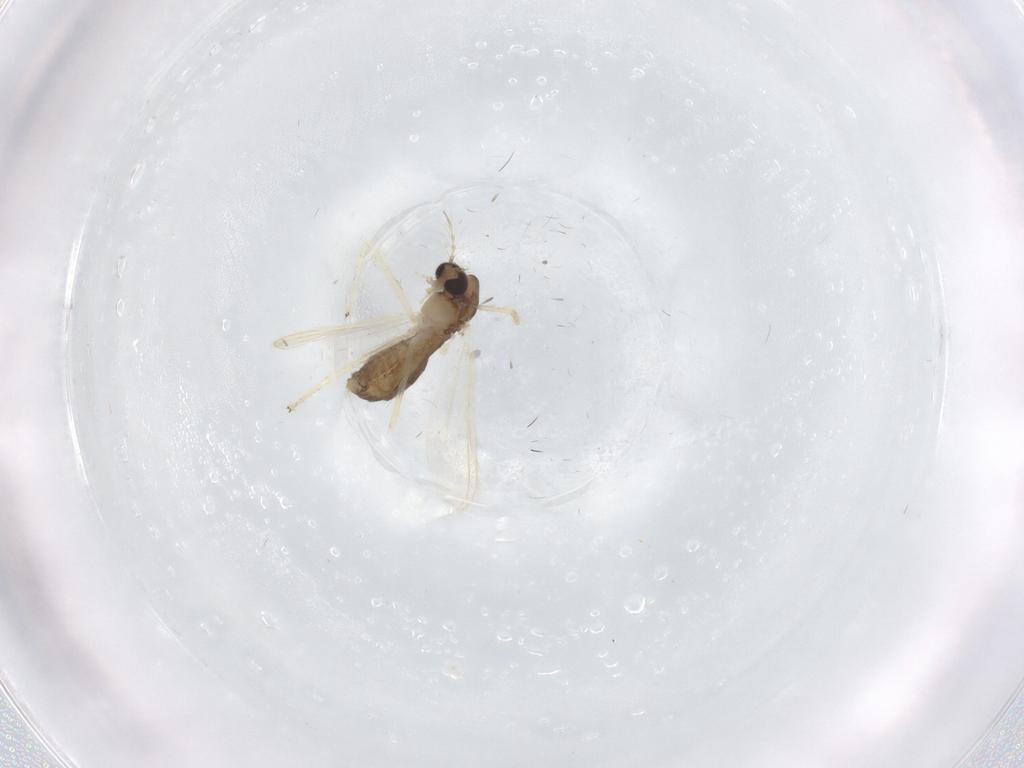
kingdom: Animalia
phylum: Arthropoda
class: Insecta
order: Diptera
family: Chironomidae
